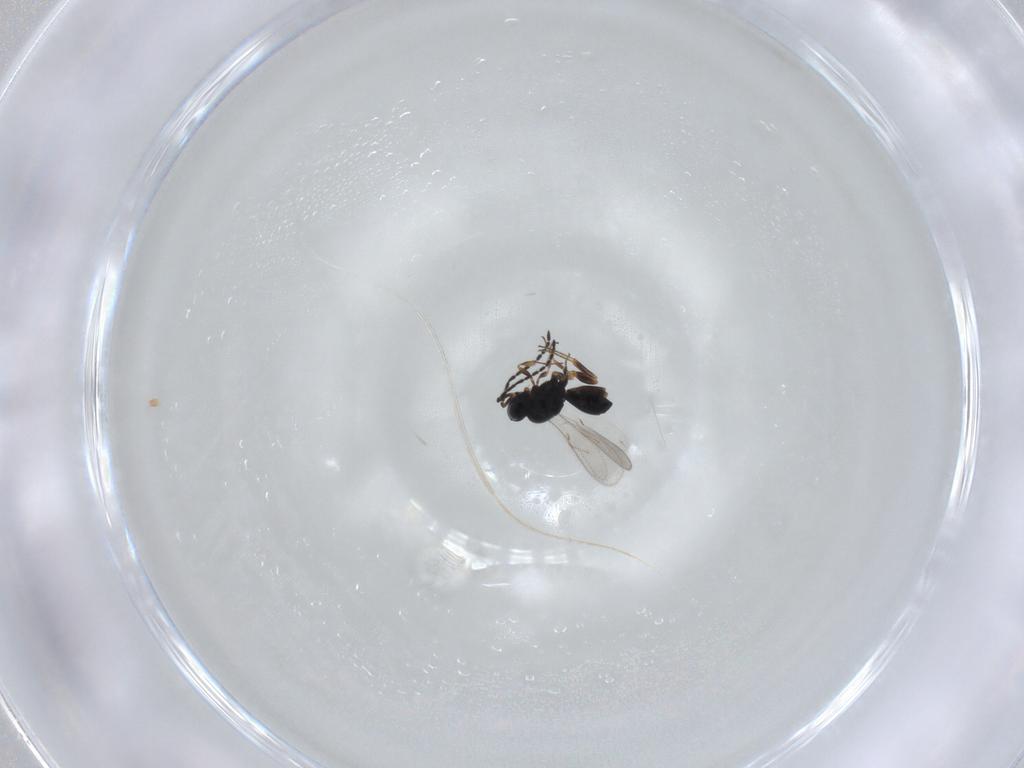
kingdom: Animalia
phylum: Arthropoda
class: Insecta
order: Hymenoptera
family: Scelionidae
